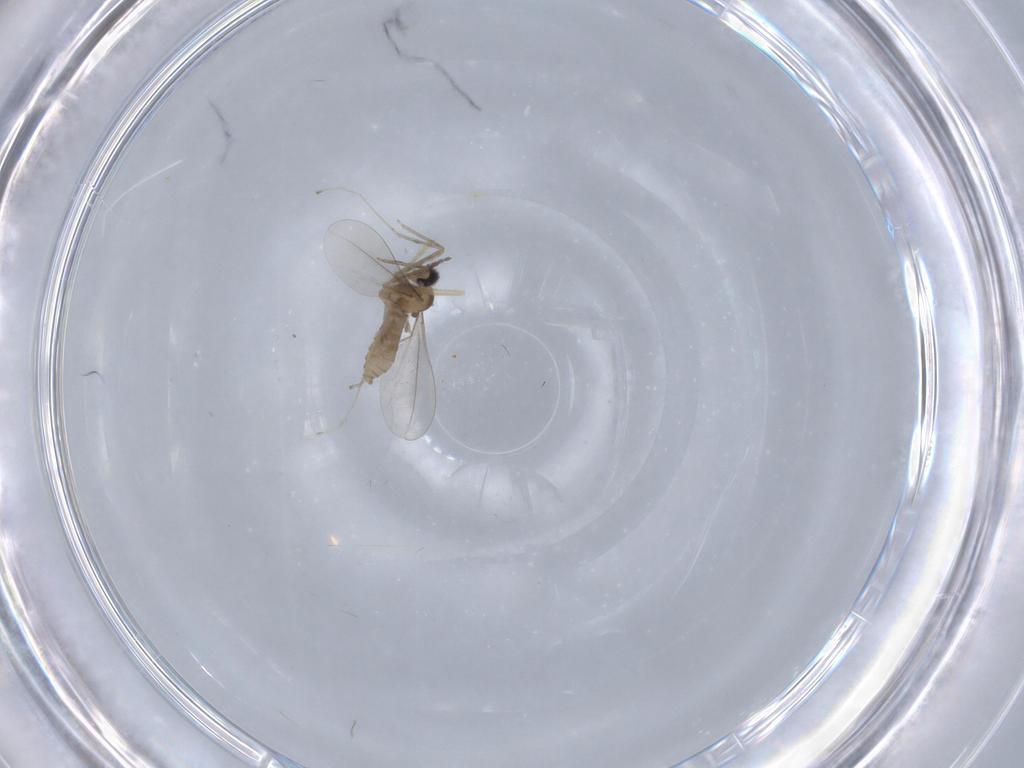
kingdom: Animalia
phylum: Arthropoda
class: Insecta
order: Diptera
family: Cecidomyiidae
